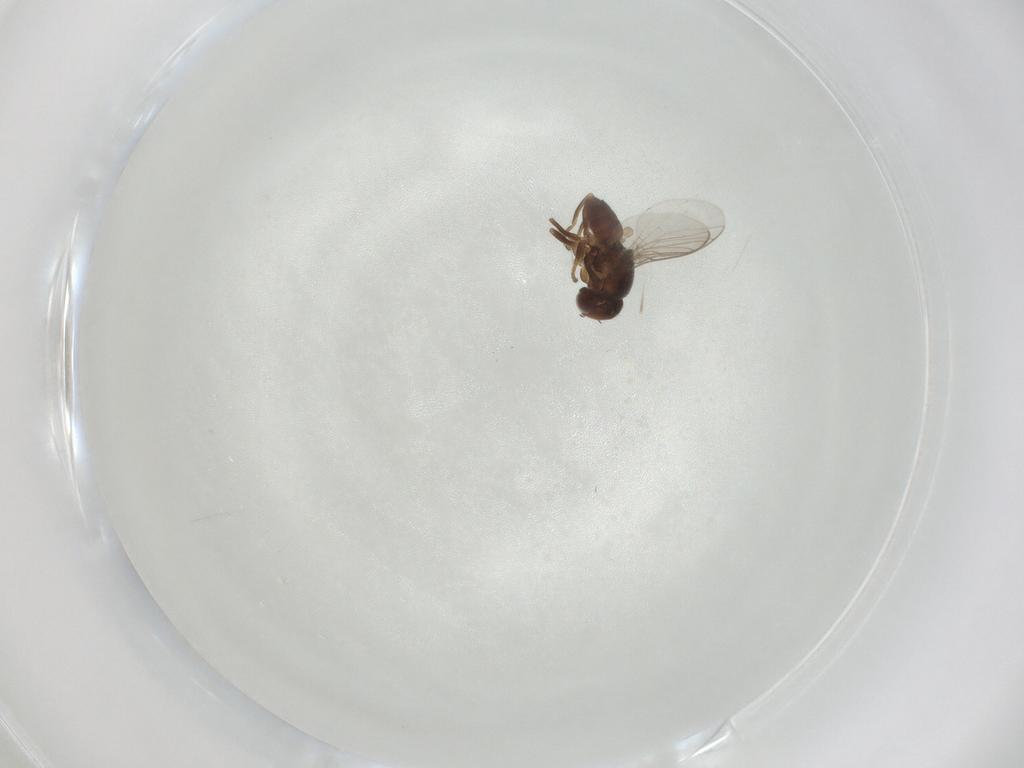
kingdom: Animalia
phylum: Arthropoda
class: Insecta
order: Diptera
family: Chloropidae
